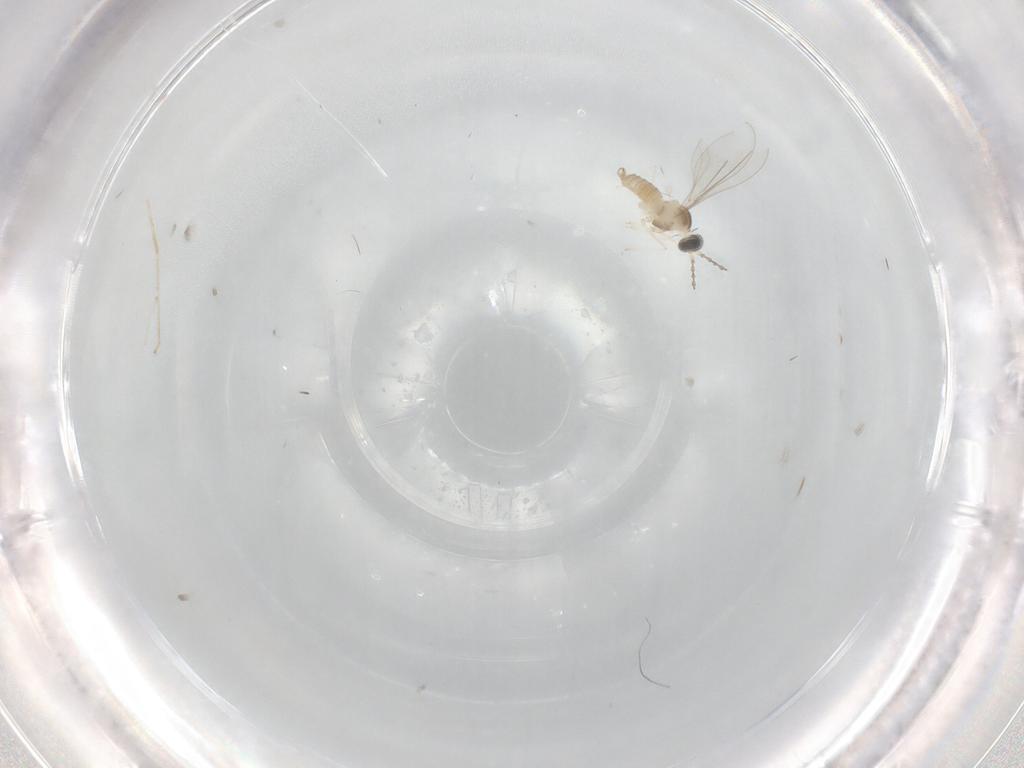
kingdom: Animalia
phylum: Arthropoda
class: Insecta
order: Diptera
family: Cecidomyiidae
